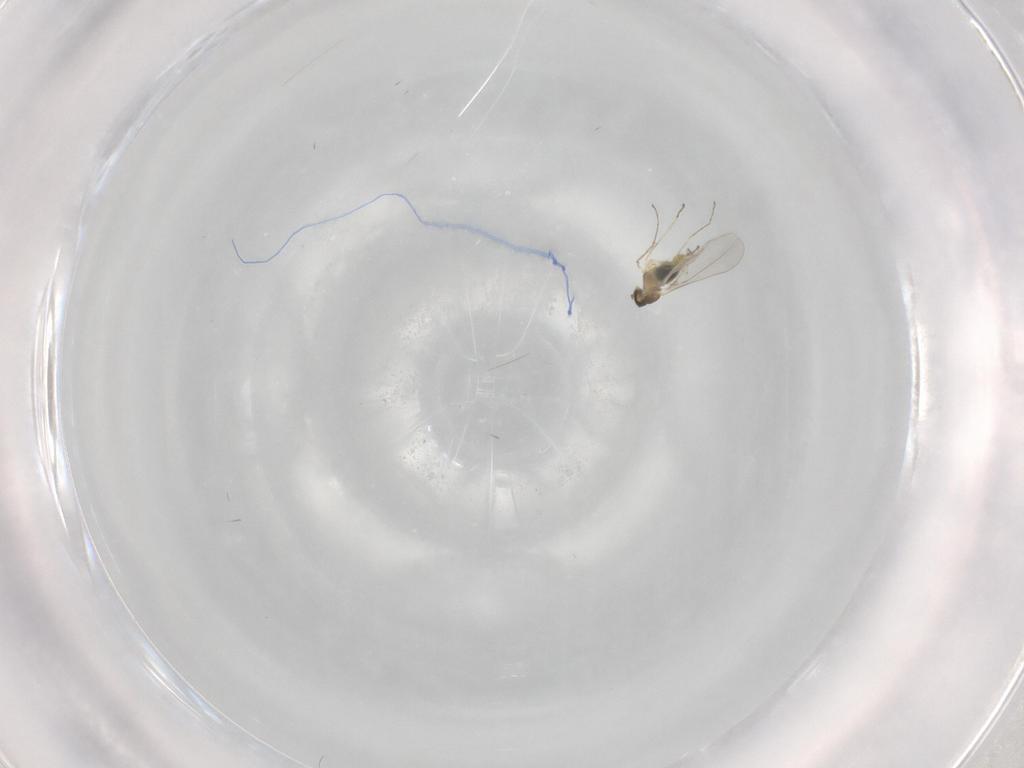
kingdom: Animalia
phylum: Arthropoda
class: Insecta
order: Diptera
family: Cecidomyiidae
